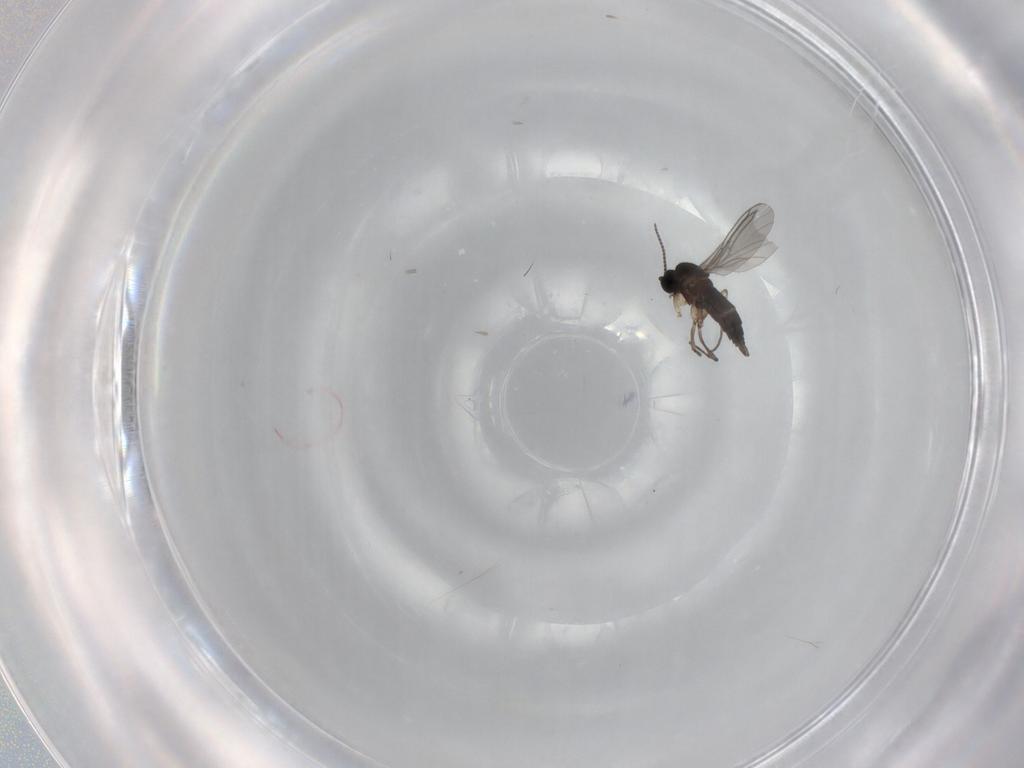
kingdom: Animalia
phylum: Arthropoda
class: Insecta
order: Diptera
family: Sciaridae
